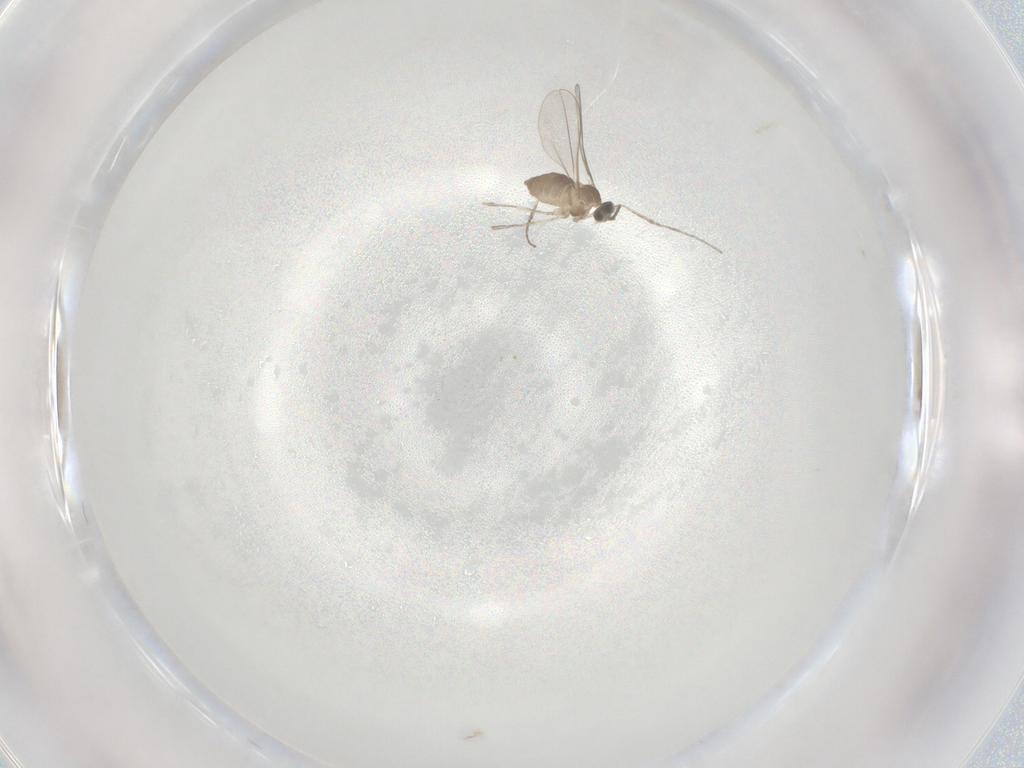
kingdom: Animalia
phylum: Arthropoda
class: Insecta
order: Diptera
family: Cecidomyiidae
